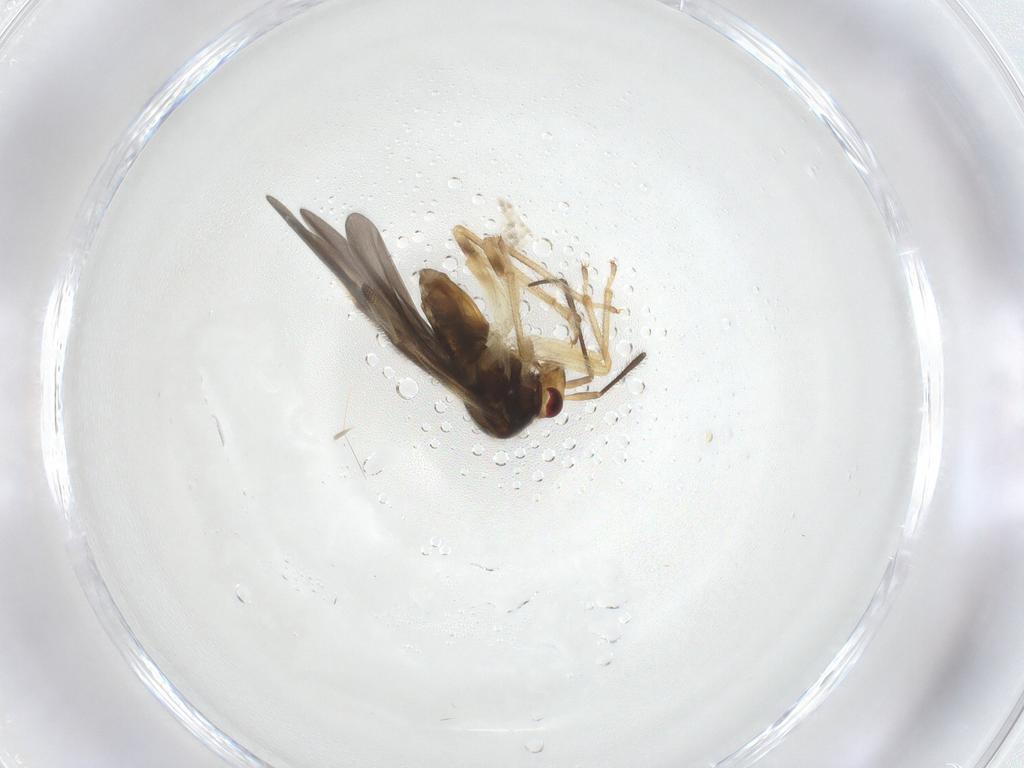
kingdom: Animalia
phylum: Arthropoda
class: Insecta
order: Hemiptera
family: Miridae
